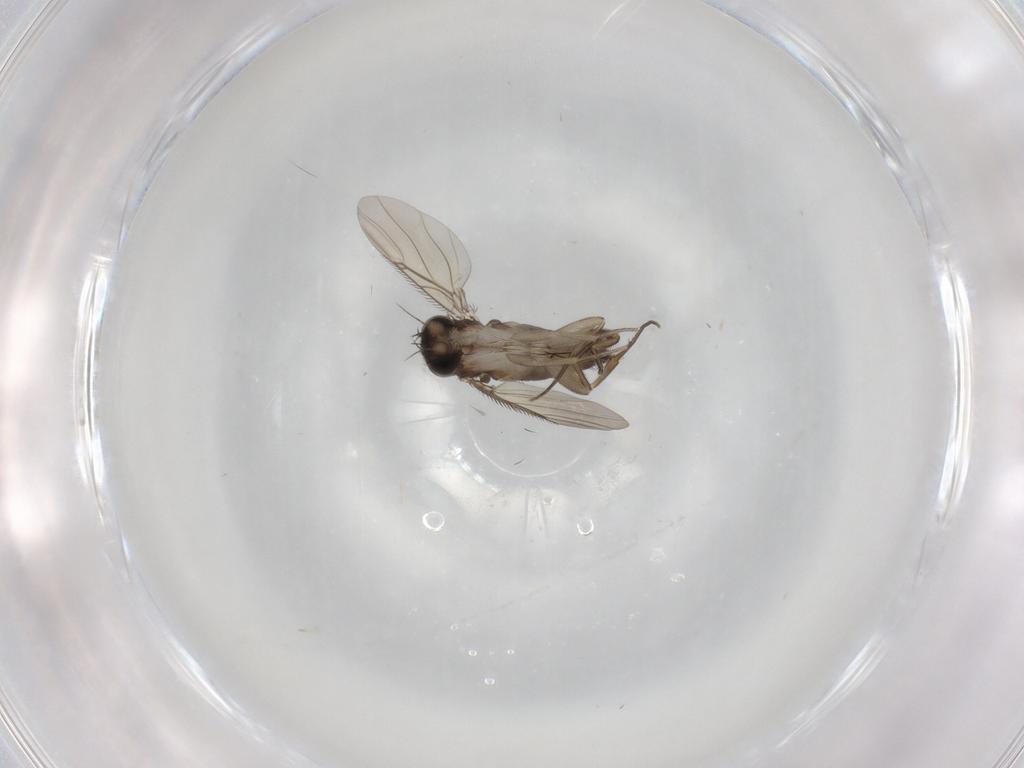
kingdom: Animalia
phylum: Arthropoda
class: Insecta
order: Diptera
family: Phoridae
